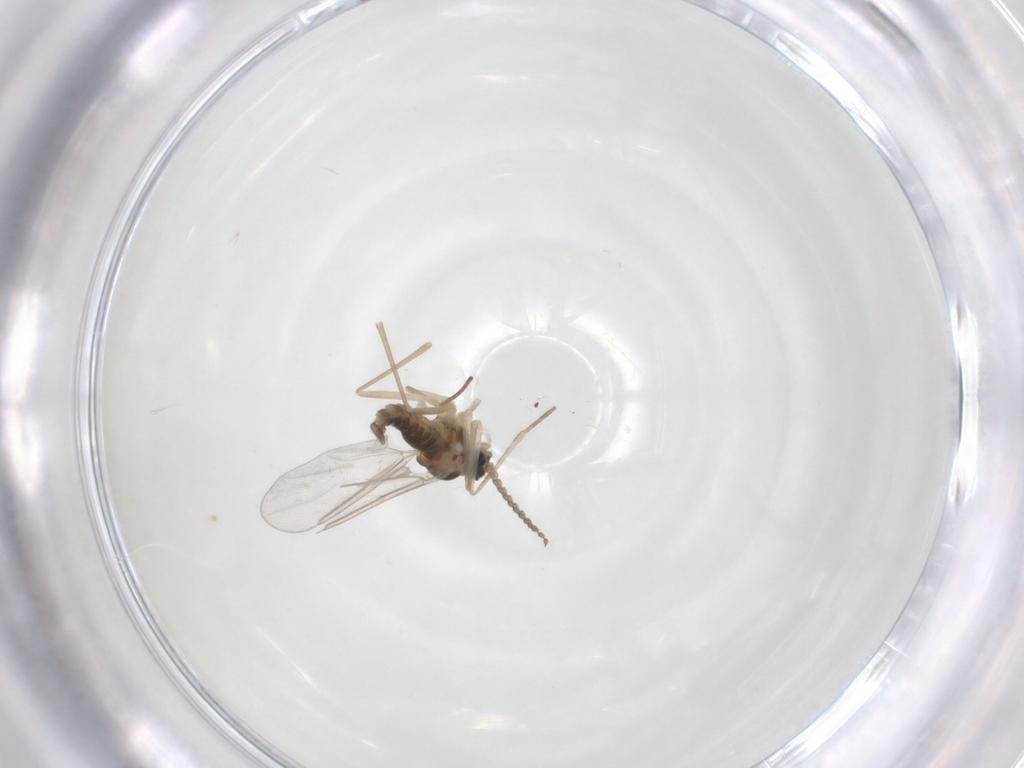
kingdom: Animalia
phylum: Arthropoda
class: Insecta
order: Diptera
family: Cecidomyiidae
